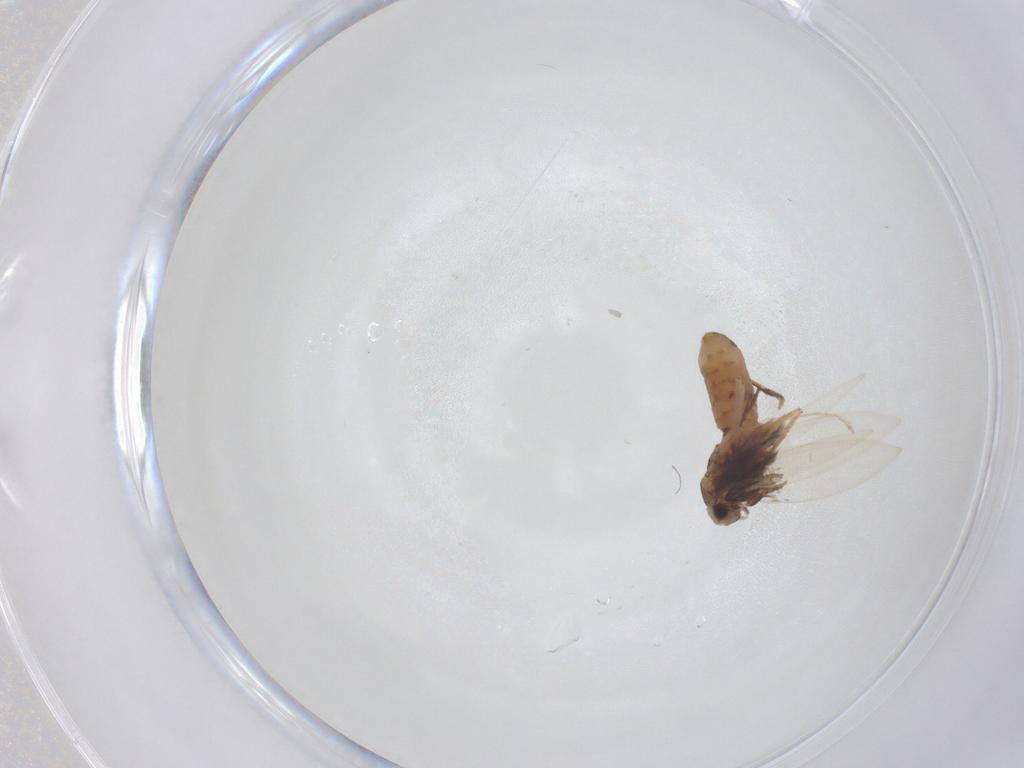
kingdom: Animalia
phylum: Arthropoda
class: Insecta
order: Lepidoptera
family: Nepticulidae
